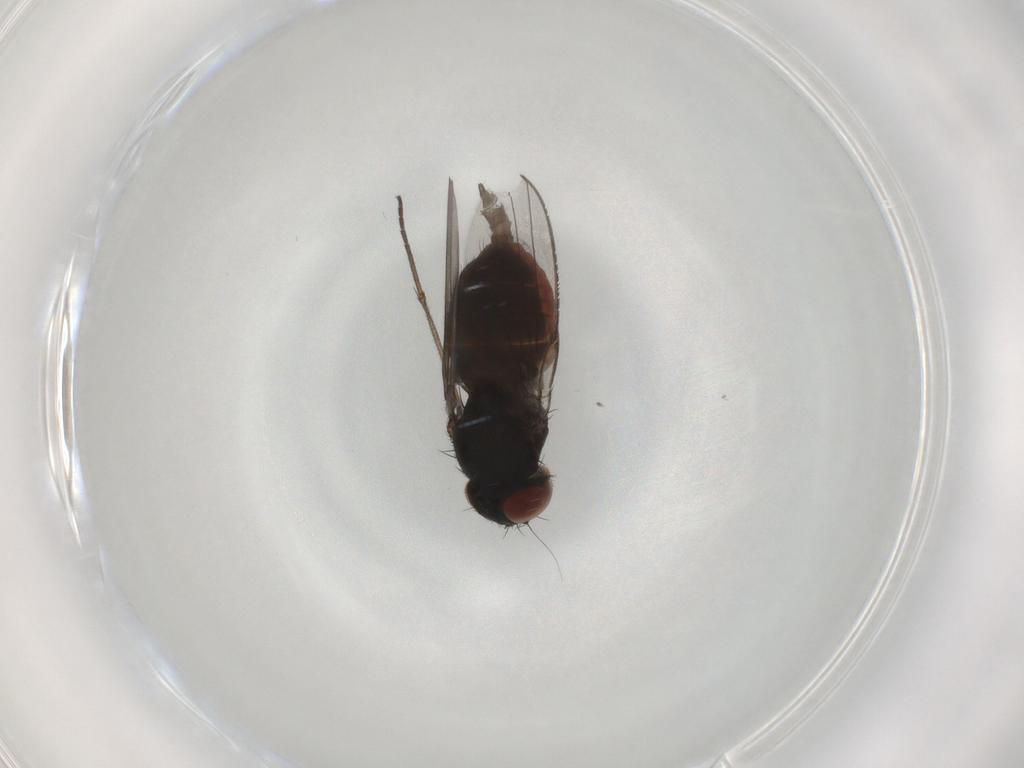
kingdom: Animalia
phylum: Arthropoda
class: Insecta
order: Diptera
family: Milichiidae
